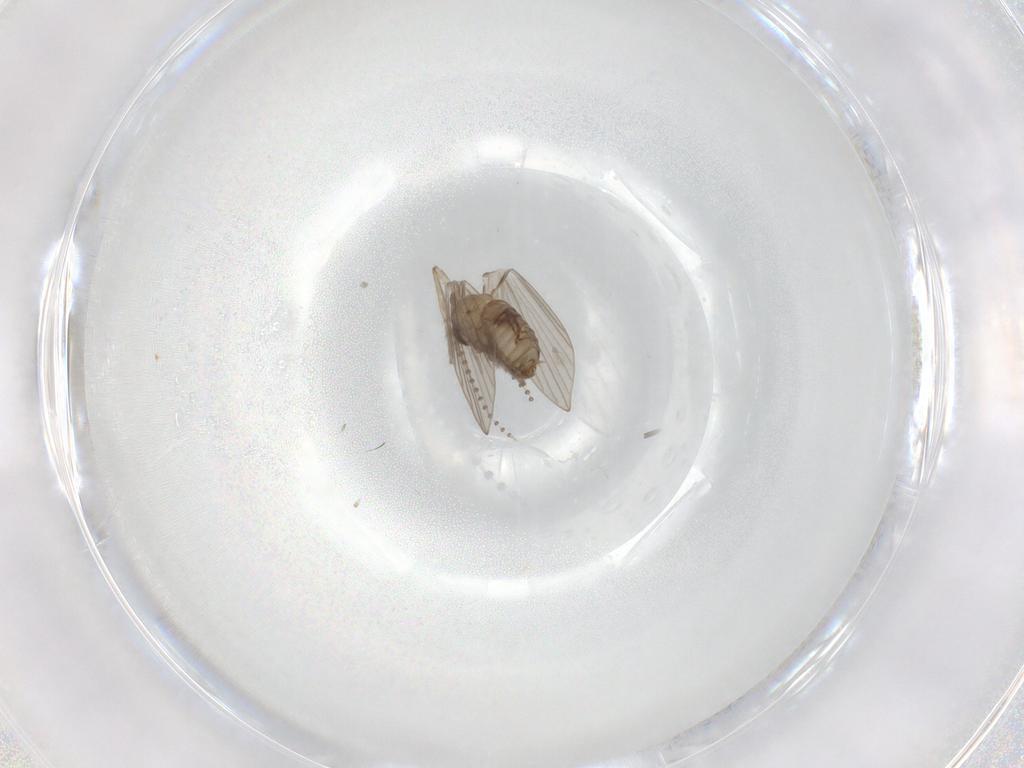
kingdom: Animalia
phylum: Arthropoda
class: Insecta
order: Diptera
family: Psychodidae
